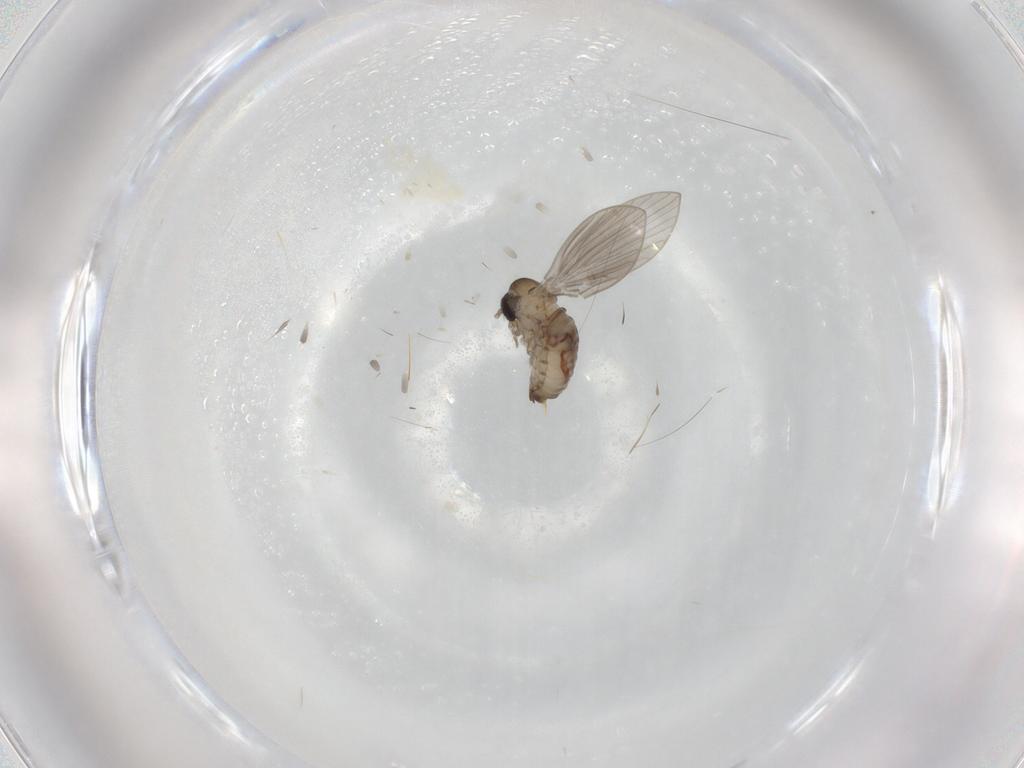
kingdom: Animalia
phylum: Arthropoda
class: Insecta
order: Diptera
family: Psychodidae
